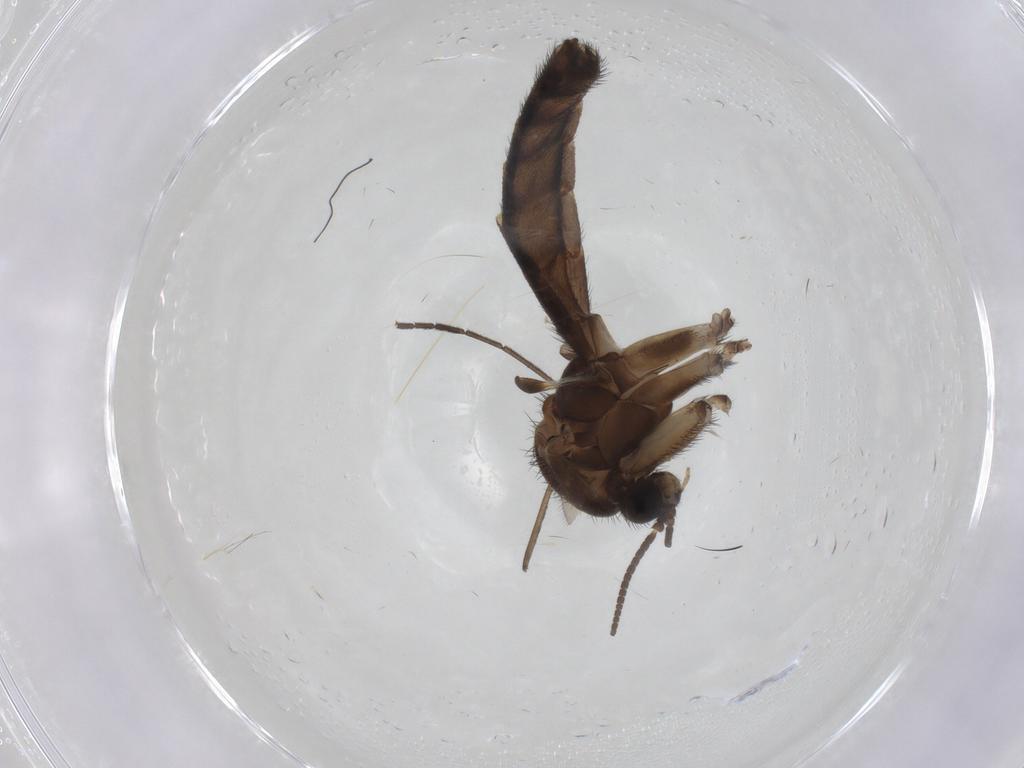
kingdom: Animalia
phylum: Arthropoda
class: Insecta
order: Diptera
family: Keroplatidae
